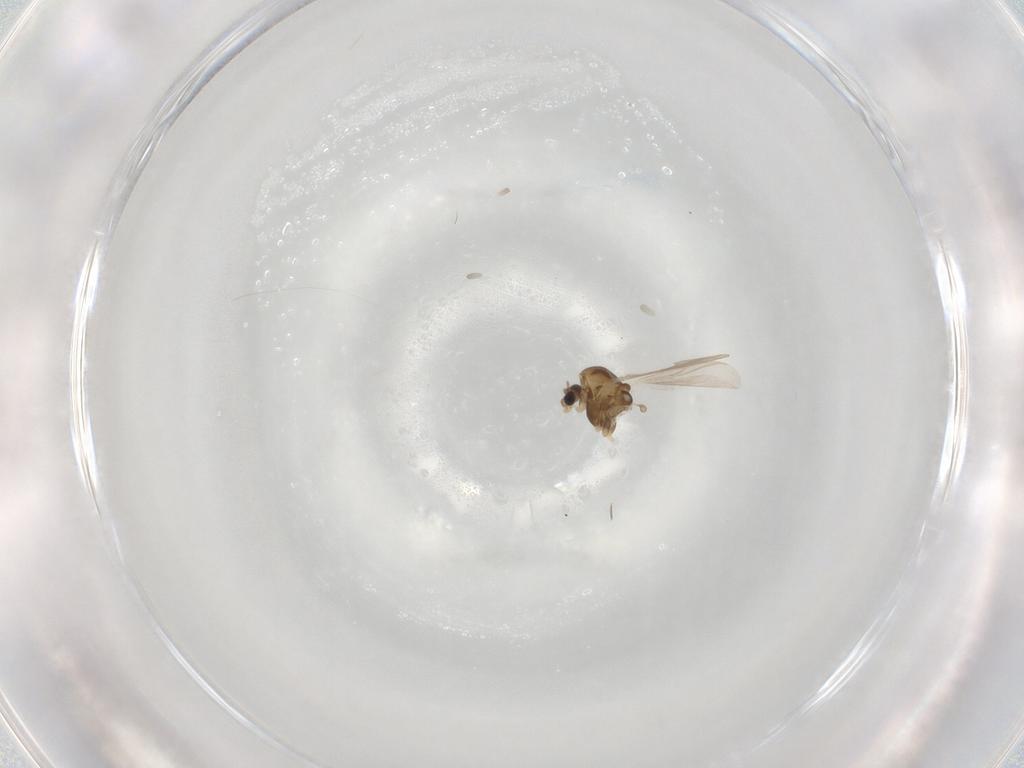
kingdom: Animalia
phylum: Arthropoda
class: Insecta
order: Diptera
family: Chironomidae
